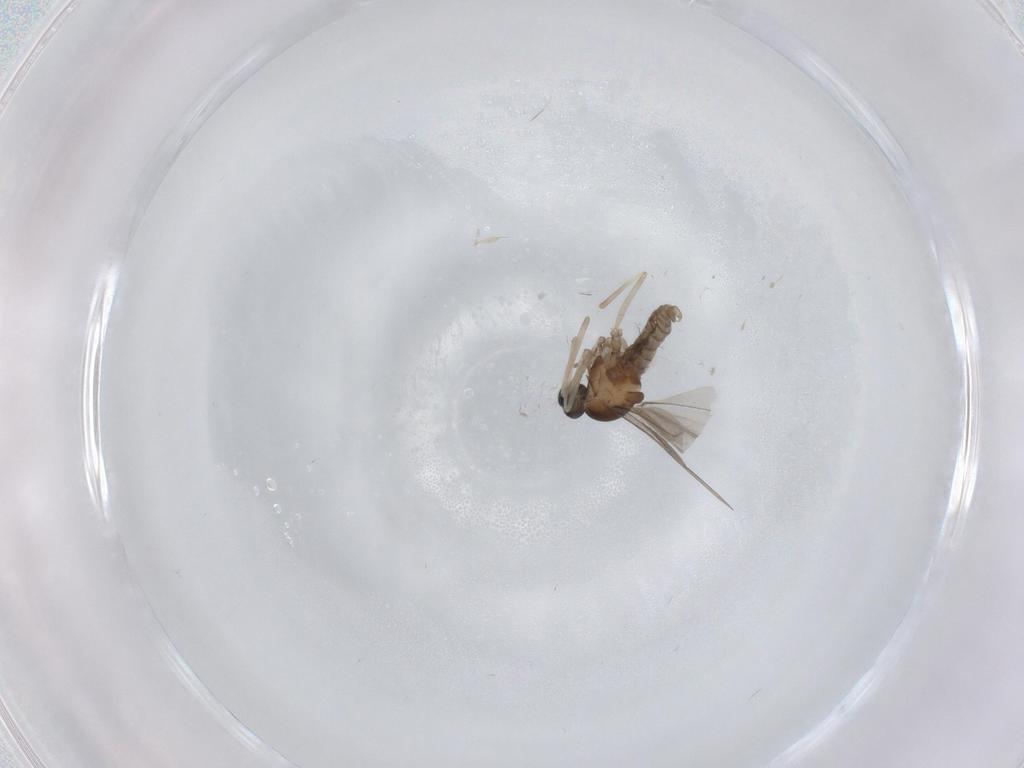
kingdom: Animalia
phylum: Arthropoda
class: Insecta
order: Diptera
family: Cecidomyiidae
